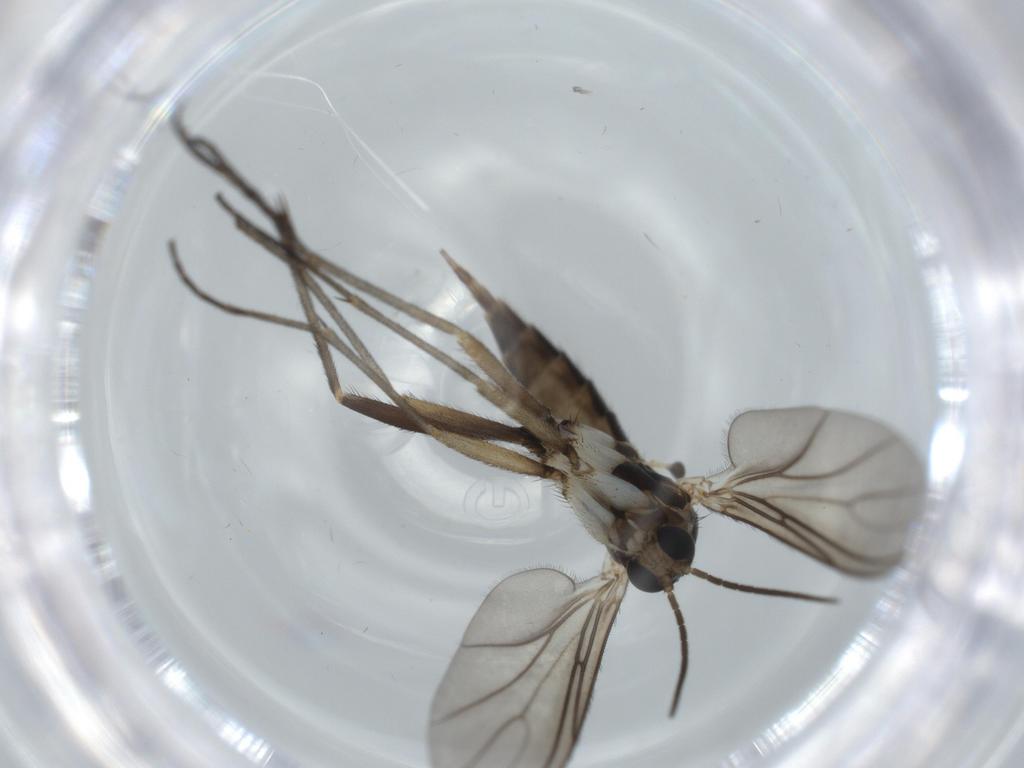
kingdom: Animalia
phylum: Arthropoda
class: Insecta
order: Diptera
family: Sciaridae
